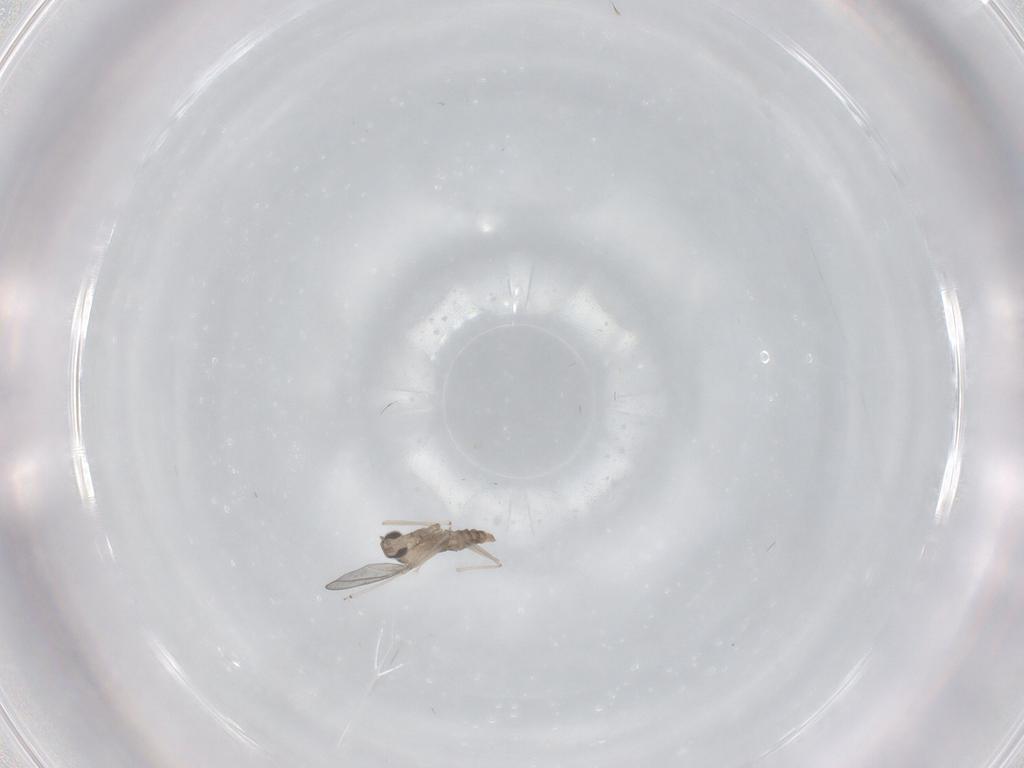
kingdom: Animalia
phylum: Arthropoda
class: Insecta
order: Diptera
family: Cecidomyiidae
